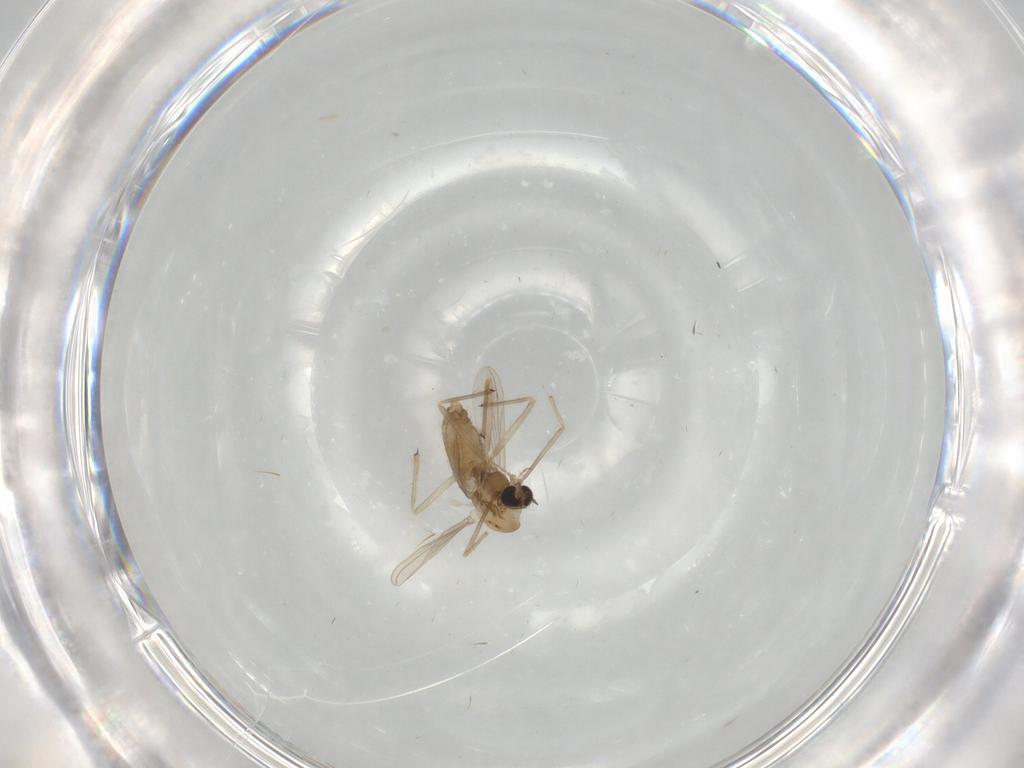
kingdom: Animalia
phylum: Arthropoda
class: Insecta
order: Diptera
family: Chironomidae
